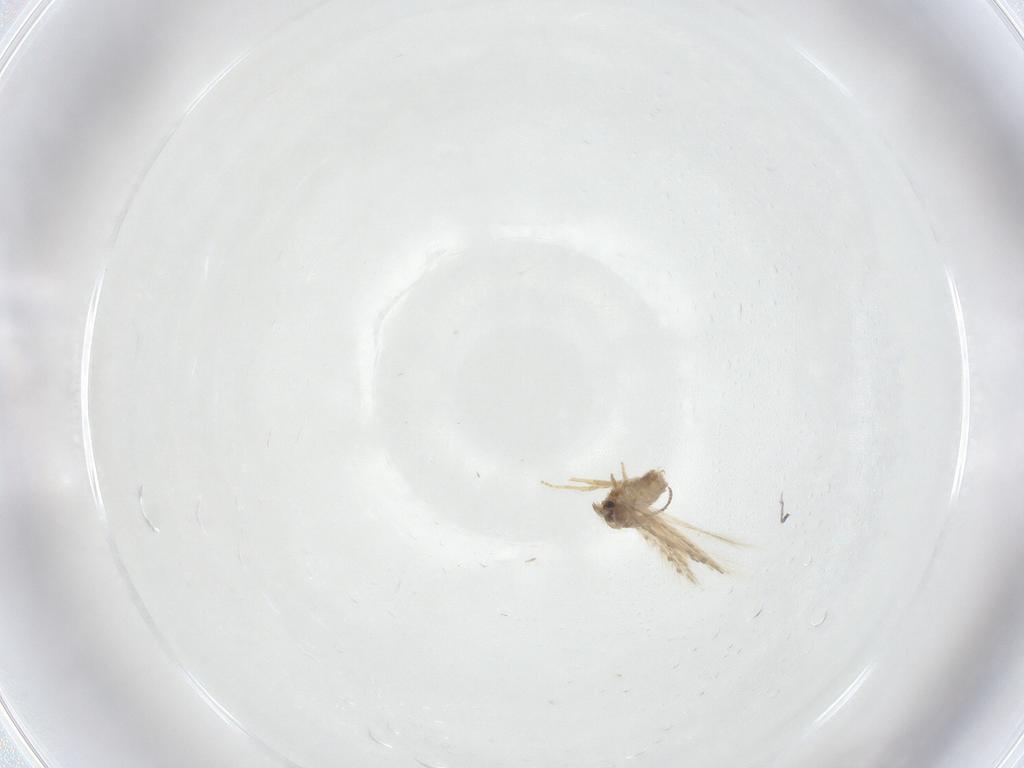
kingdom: Animalia
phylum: Arthropoda
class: Insecta
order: Lepidoptera
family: Nepticulidae
